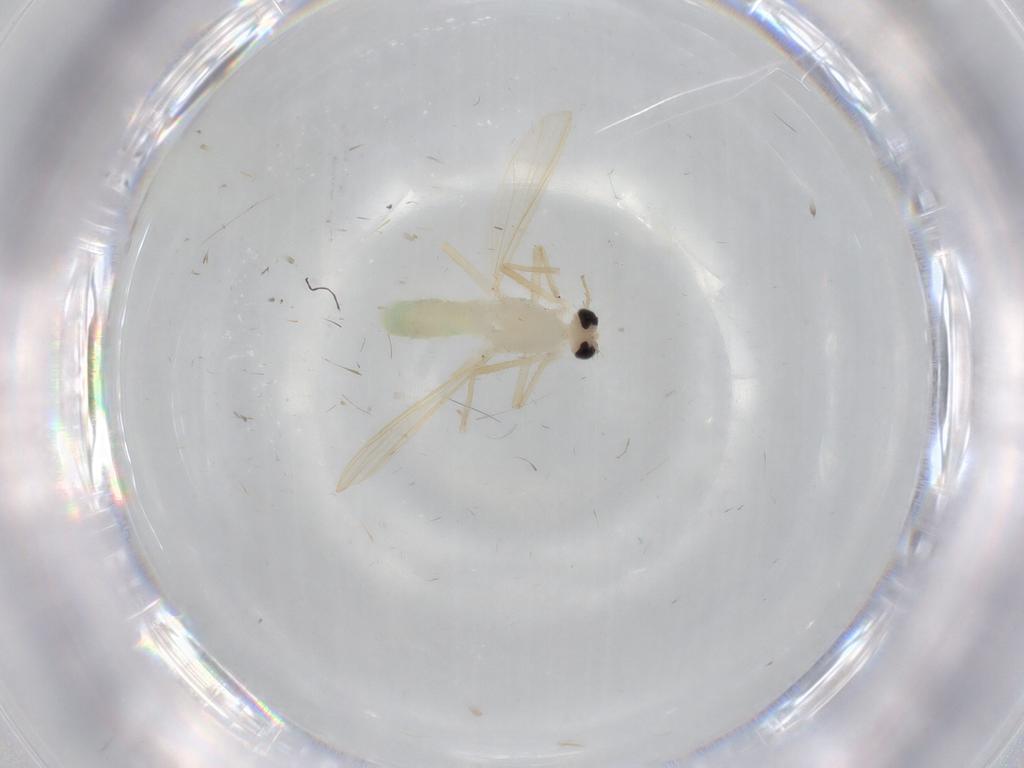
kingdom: Animalia
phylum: Arthropoda
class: Insecta
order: Diptera
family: Chironomidae
